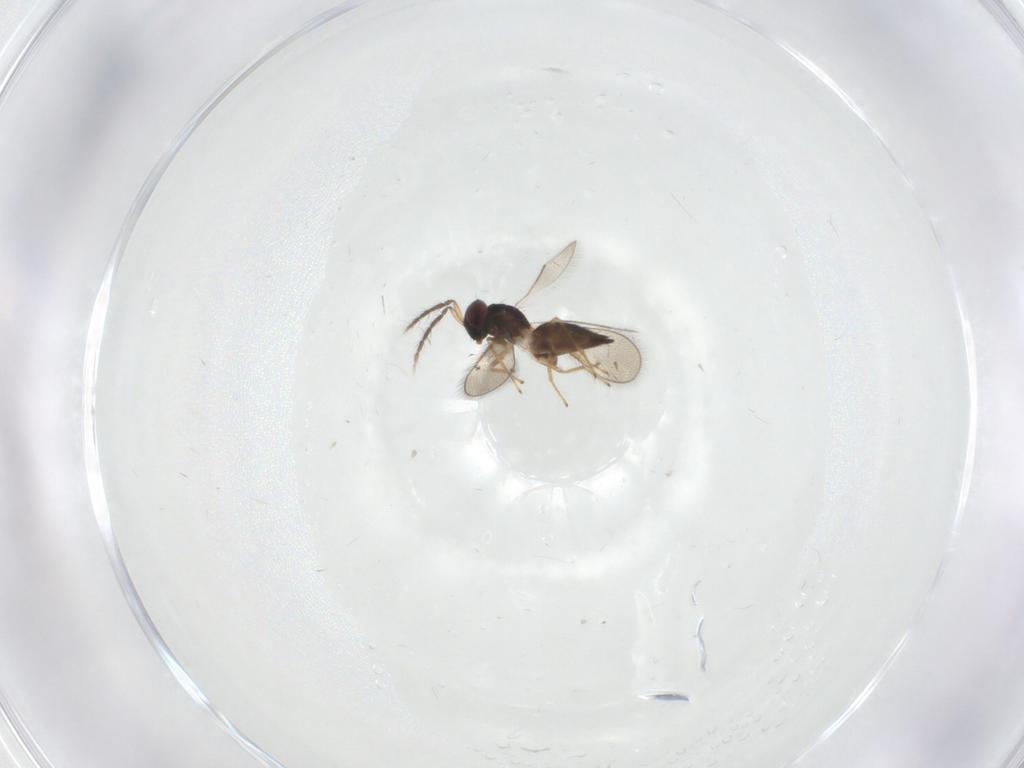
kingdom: Animalia
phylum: Arthropoda
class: Insecta
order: Hymenoptera
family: Eulophidae
